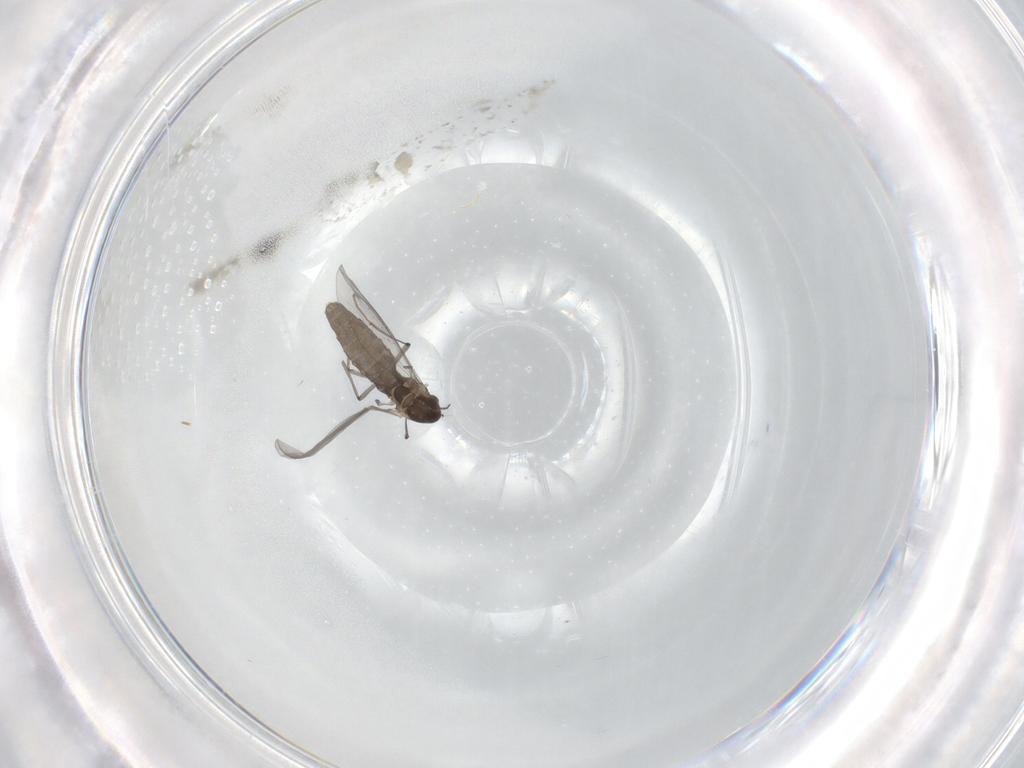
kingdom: Animalia
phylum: Arthropoda
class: Insecta
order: Diptera
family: Chironomidae
